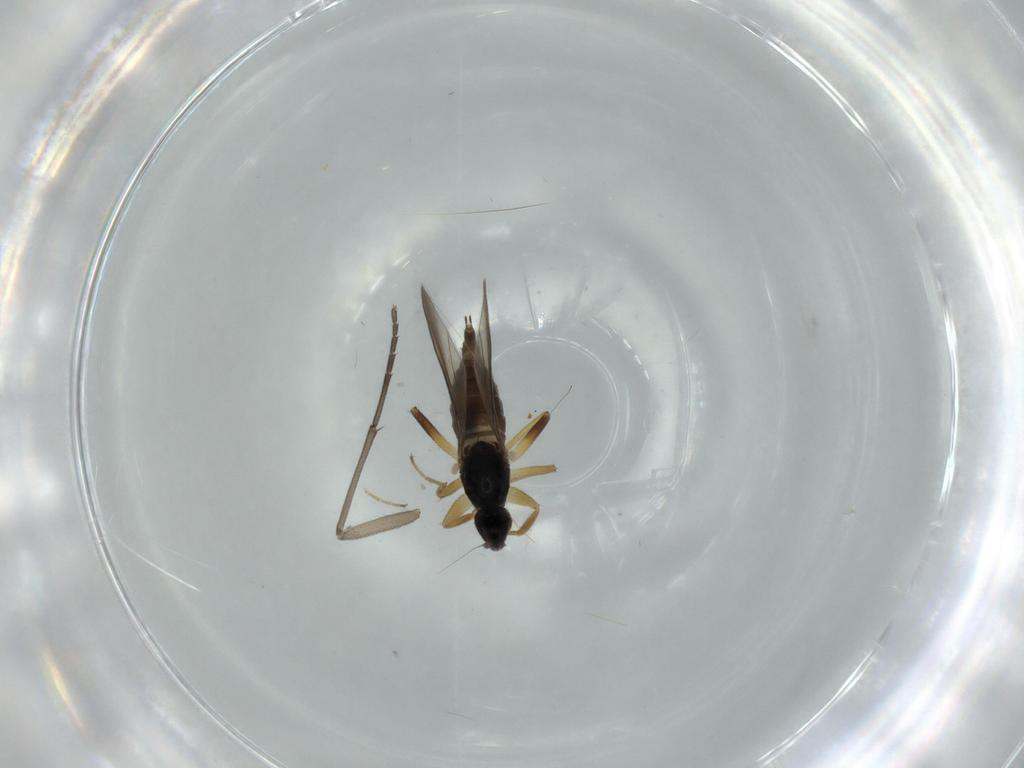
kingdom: Animalia
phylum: Arthropoda
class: Insecta
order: Diptera
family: Hybotidae
